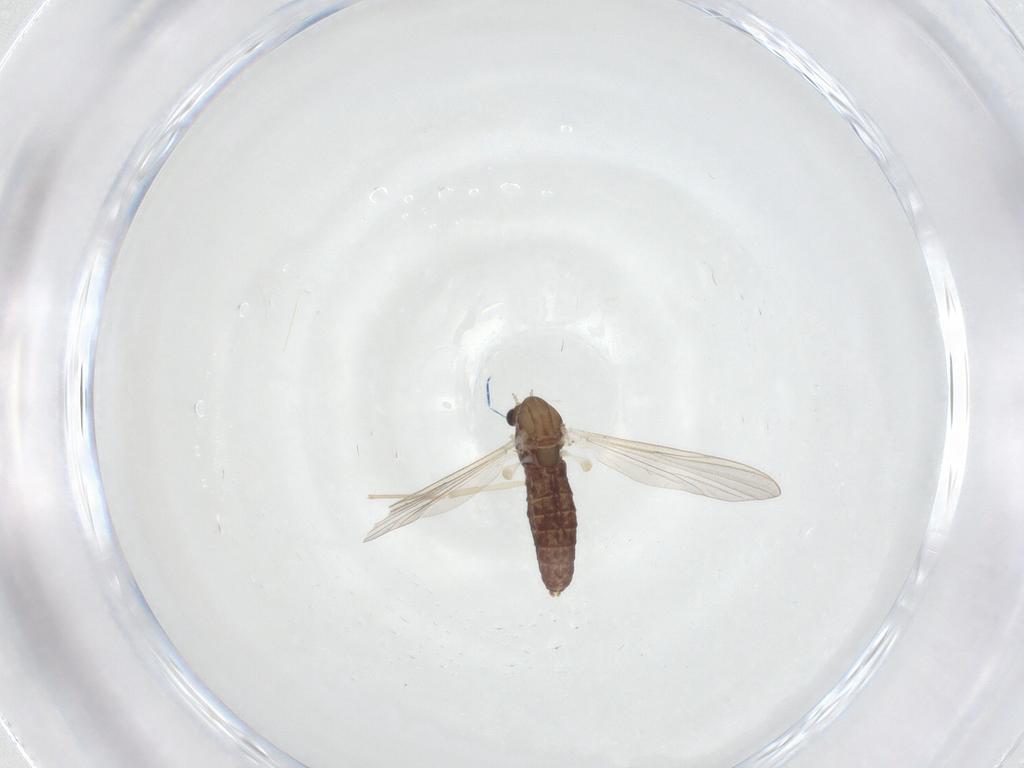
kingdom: Animalia
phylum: Arthropoda
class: Insecta
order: Diptera
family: Chironomidae
